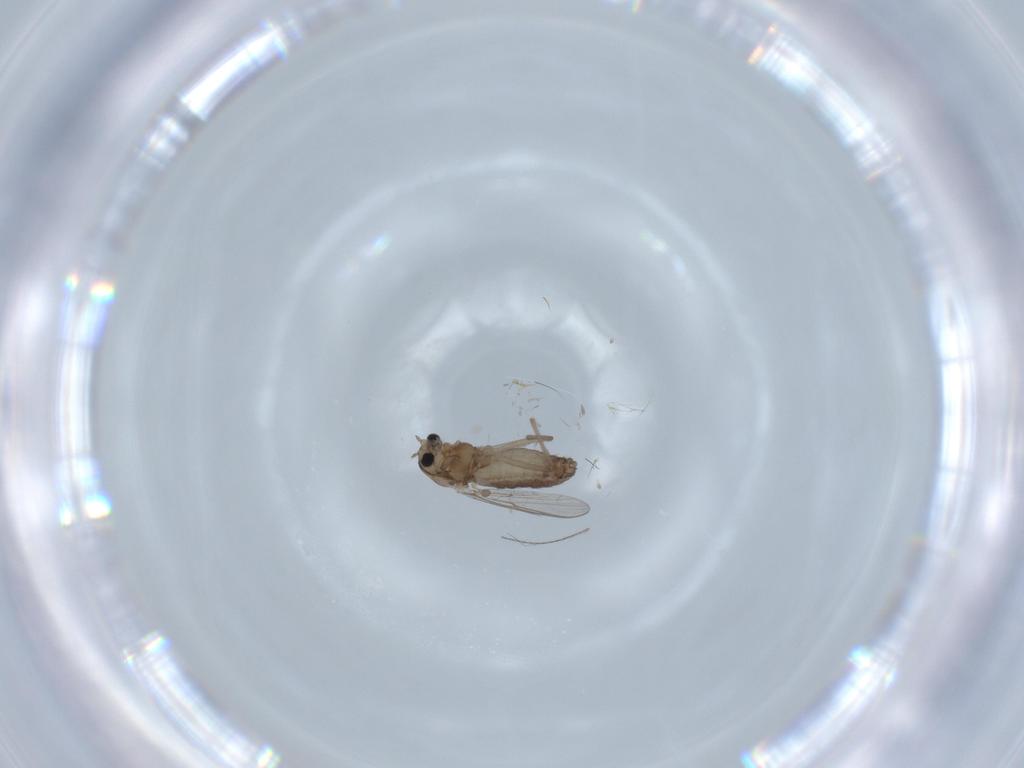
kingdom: Animalia
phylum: Arthropoda
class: Insecta
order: Diptera
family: Chironomidae
